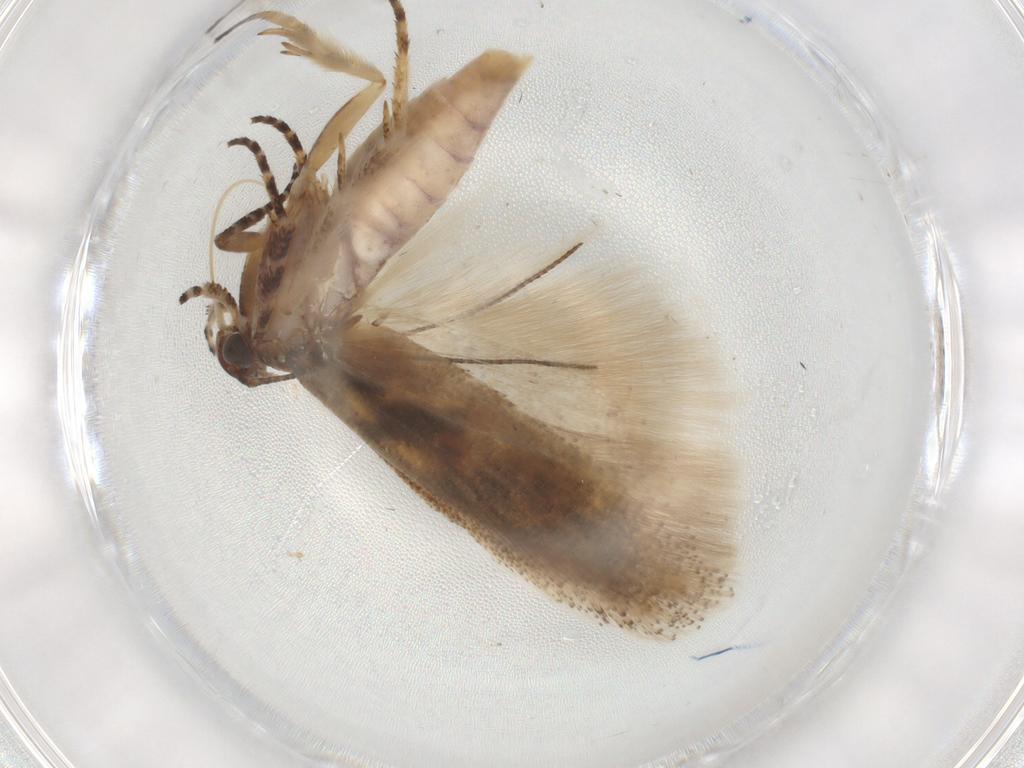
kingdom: Animalia
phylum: Arthropoda
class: Insecta
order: Lepidoptera
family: Gelechiidae
